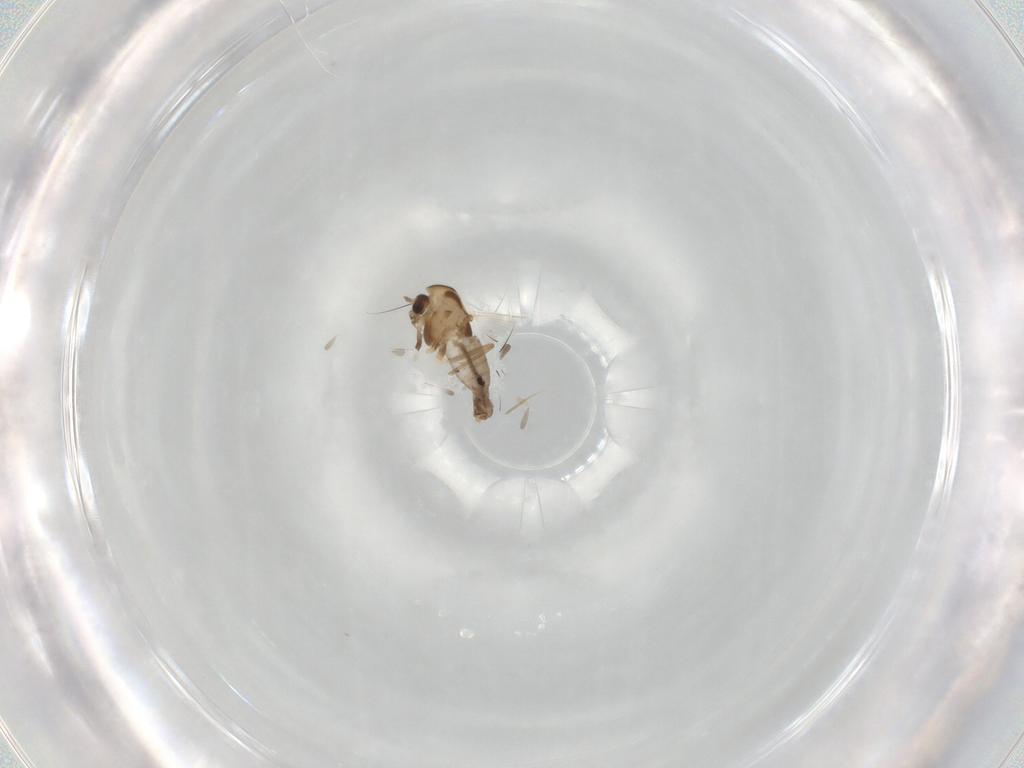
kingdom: Animalia
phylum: Arthropoda
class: Insecta
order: Diptera
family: Chironomidae
